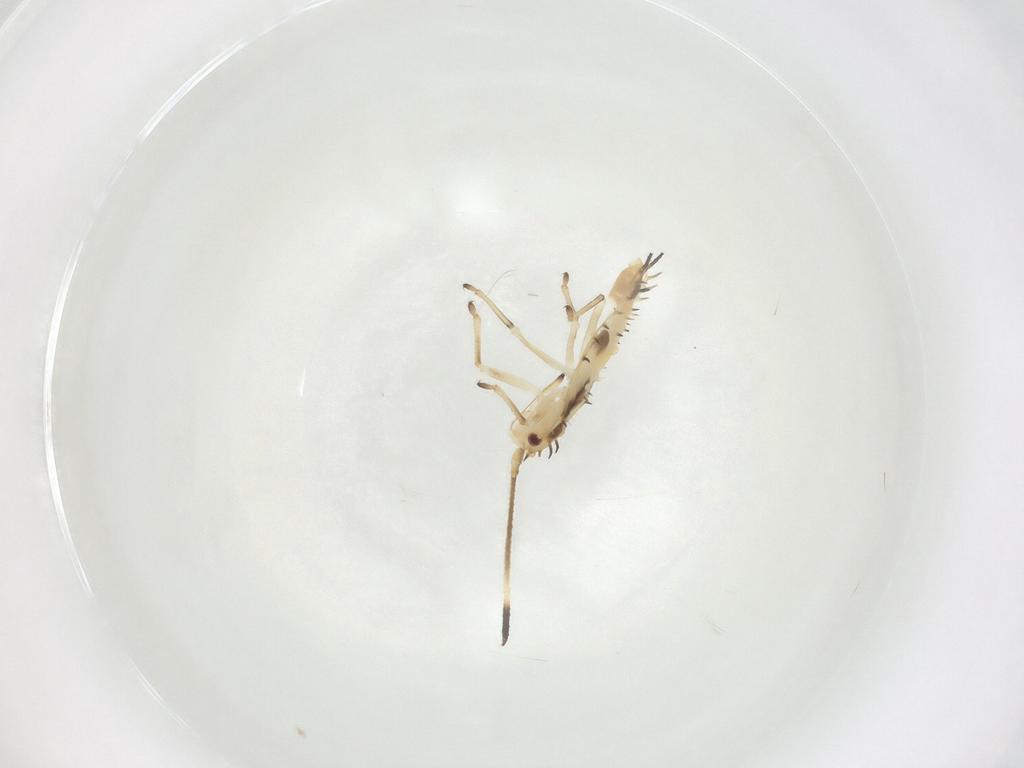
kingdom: Animalia
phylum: Arthropoda
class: Insecta
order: Hemiptera
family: Tingidae
